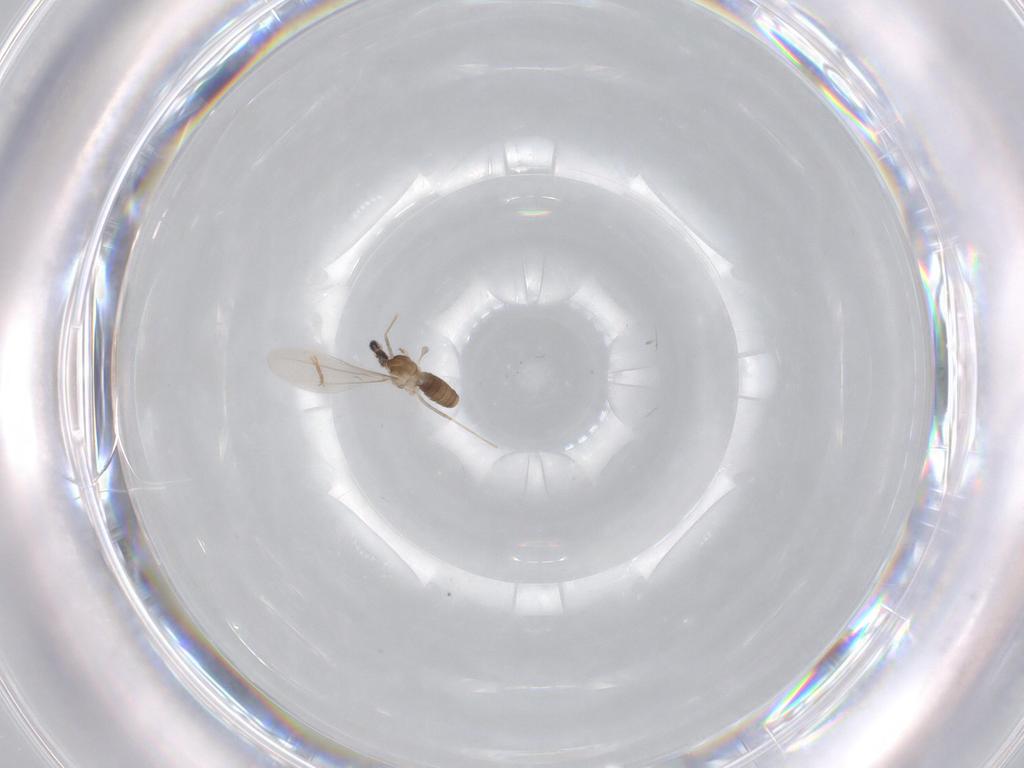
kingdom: Animalia
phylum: Arthropoda
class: Insecta
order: Diptera
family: Cecidomyiidae
